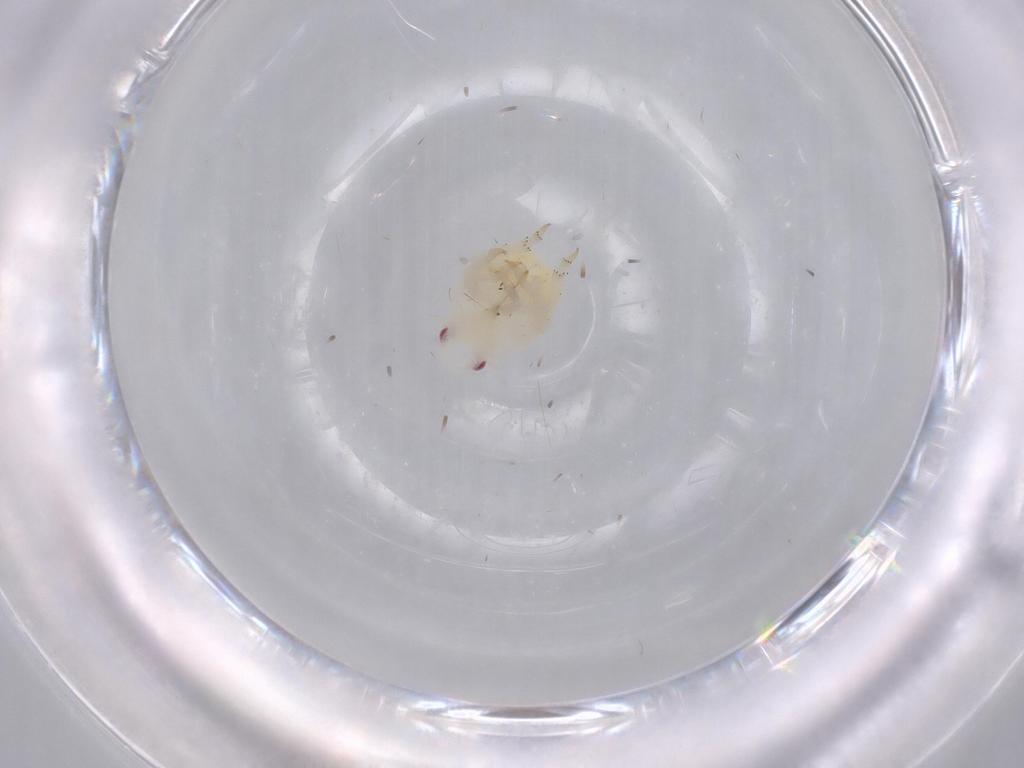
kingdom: Animalia
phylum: Arthropoda
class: Insecta
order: Hemiptera
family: Flatidae
